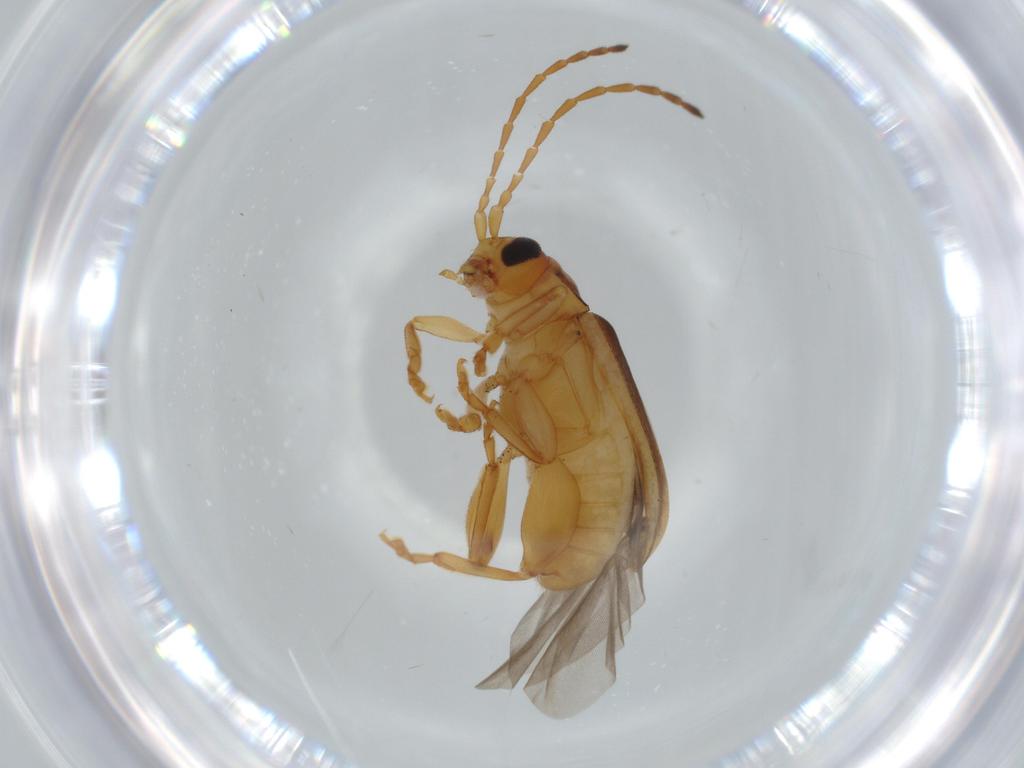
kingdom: Animalia
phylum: Arthropoda
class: Insecta
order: Coleoptera
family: Chrysomelidae
